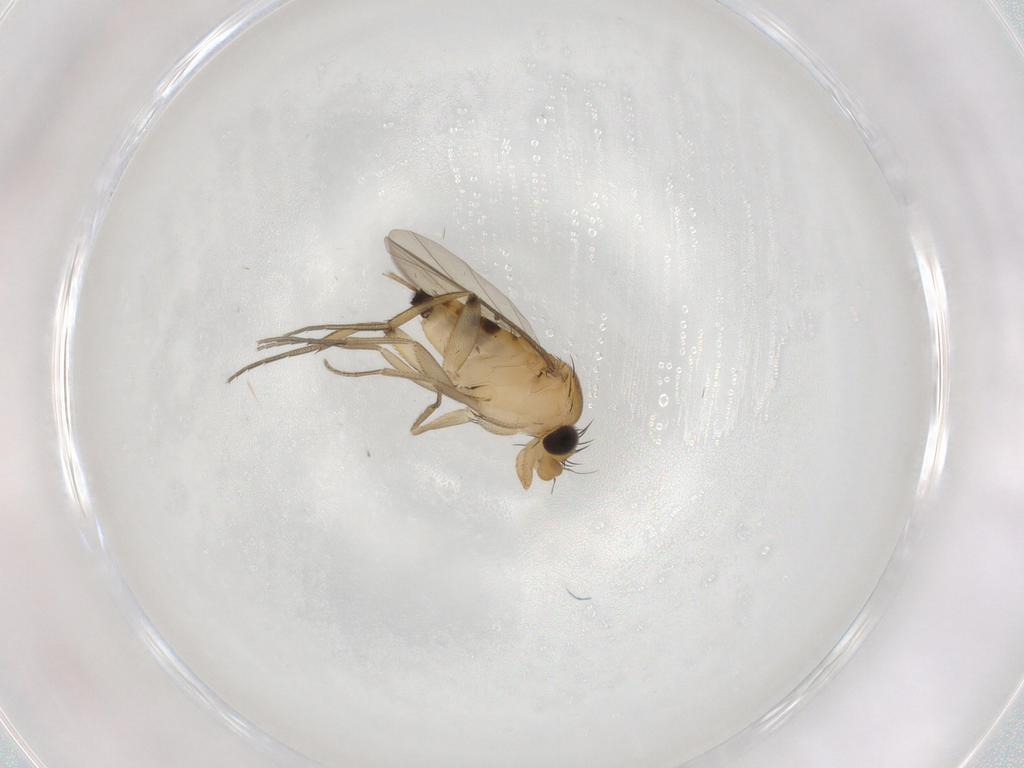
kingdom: Animalia
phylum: Arthropoda
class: Insecta
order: Diptera
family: Phoridae
